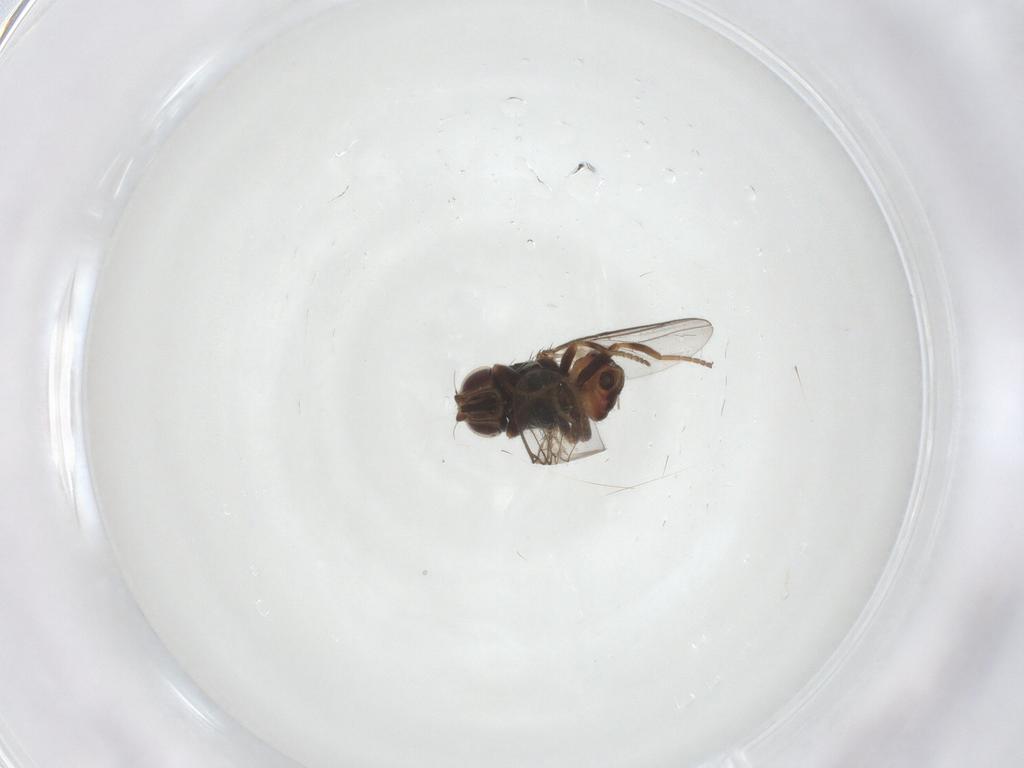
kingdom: Animalia
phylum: Arthropoda
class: Insecta
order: Diptera
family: Chloropidae
